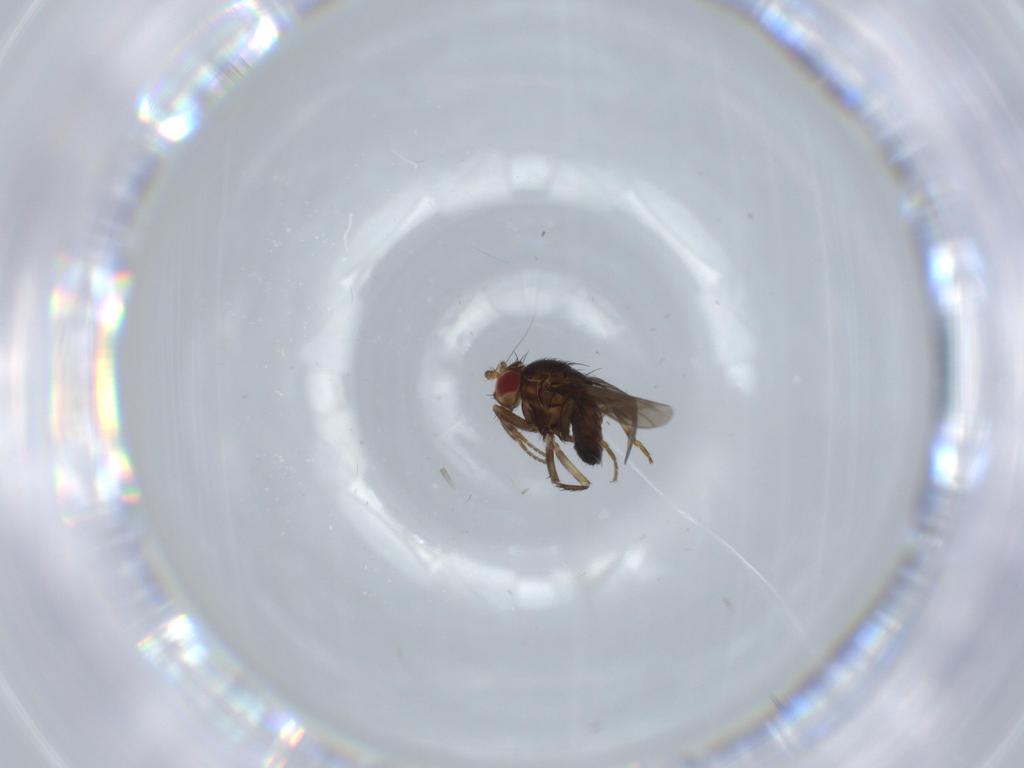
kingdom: Animalia
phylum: Arthropoda
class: Insecta
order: Diptera
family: Sphaeroceridae
